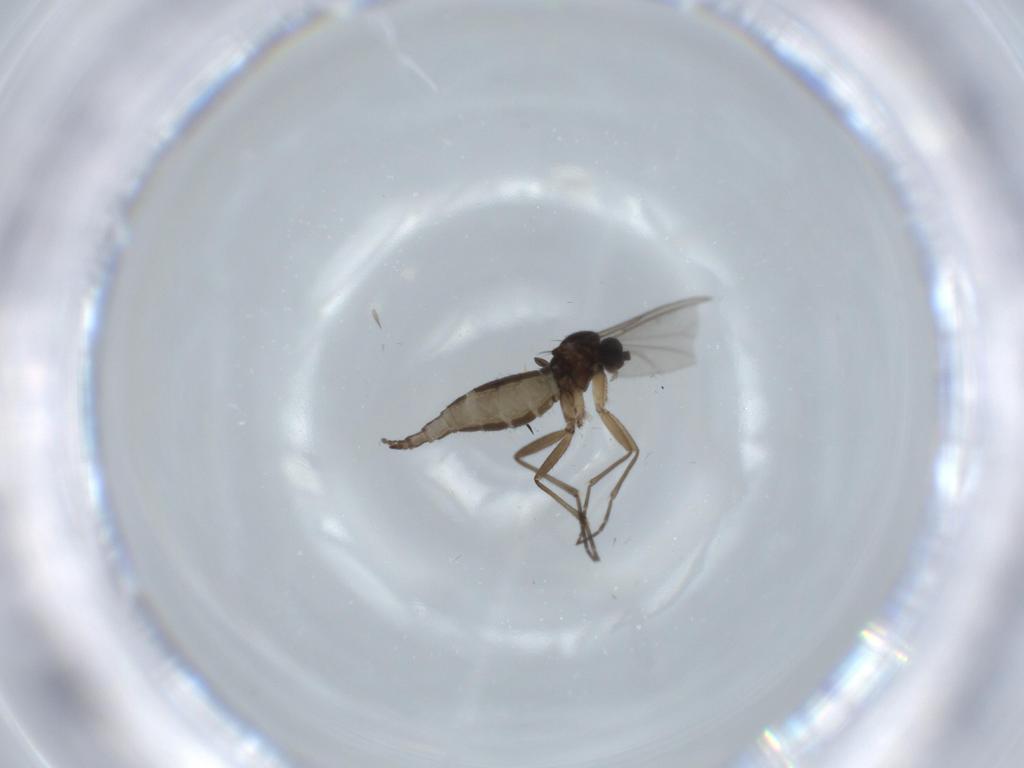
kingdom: Animalia
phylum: Arthropoda
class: Insecta
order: Diptera
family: Sciaridae
